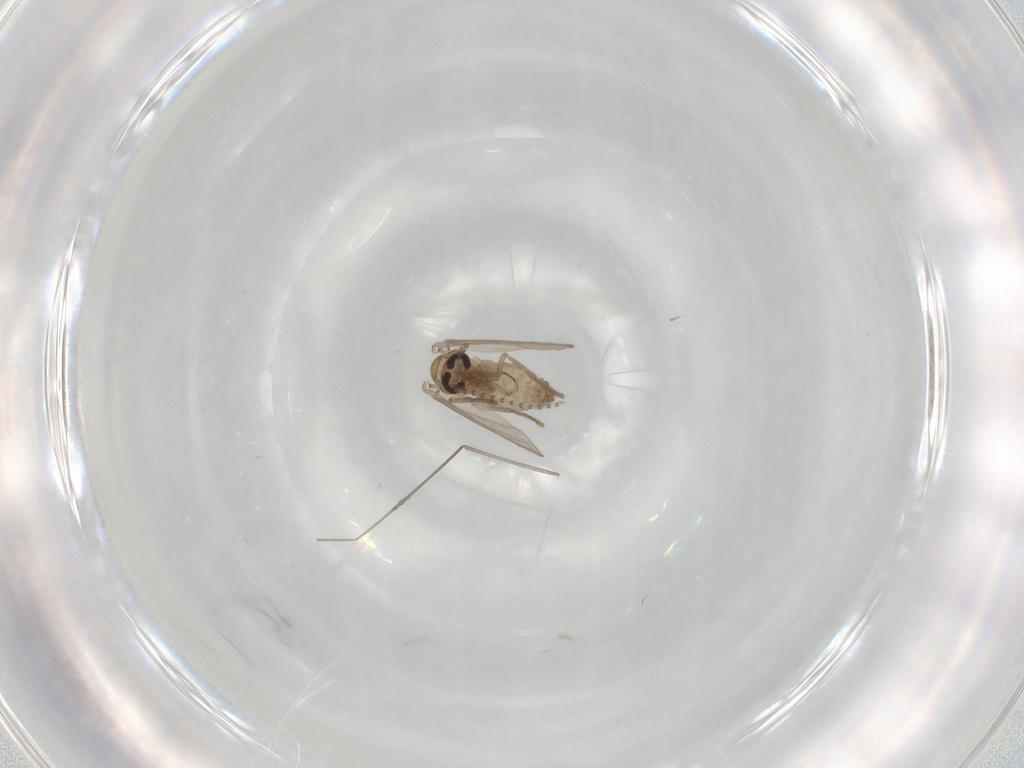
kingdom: Animalia
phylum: Arthropoda
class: Insecta
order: Diptera
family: Psychodidae
